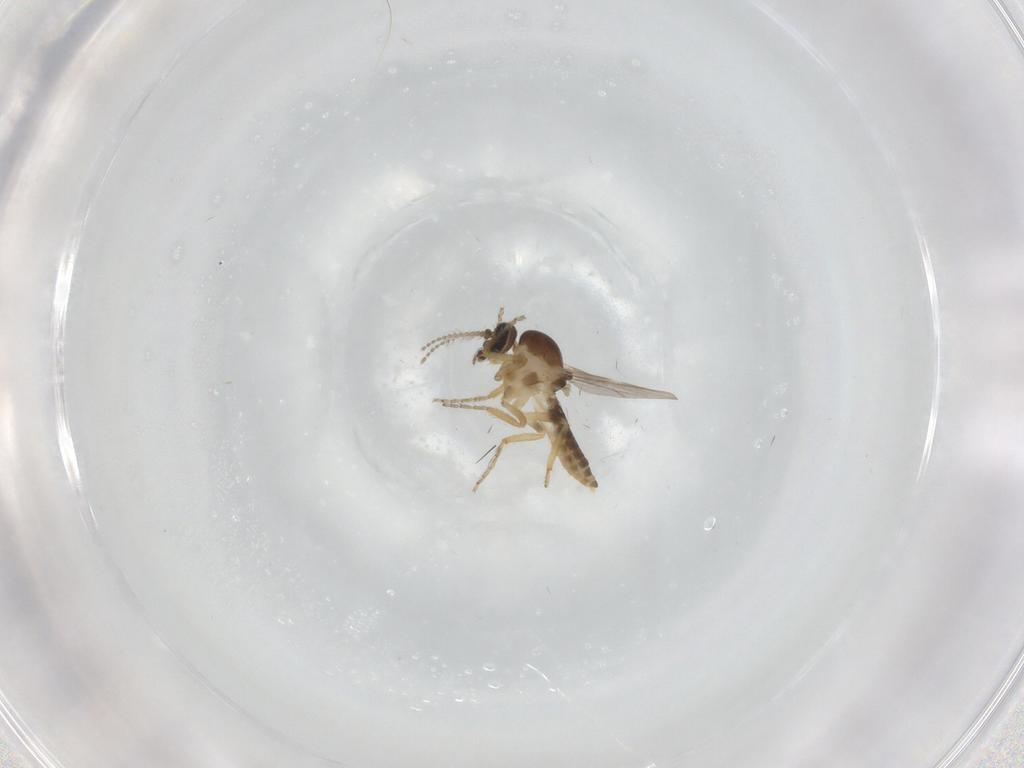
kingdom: Animalia
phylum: Arthropoda
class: Insecta
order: Diptera
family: Ceratopogonidae
